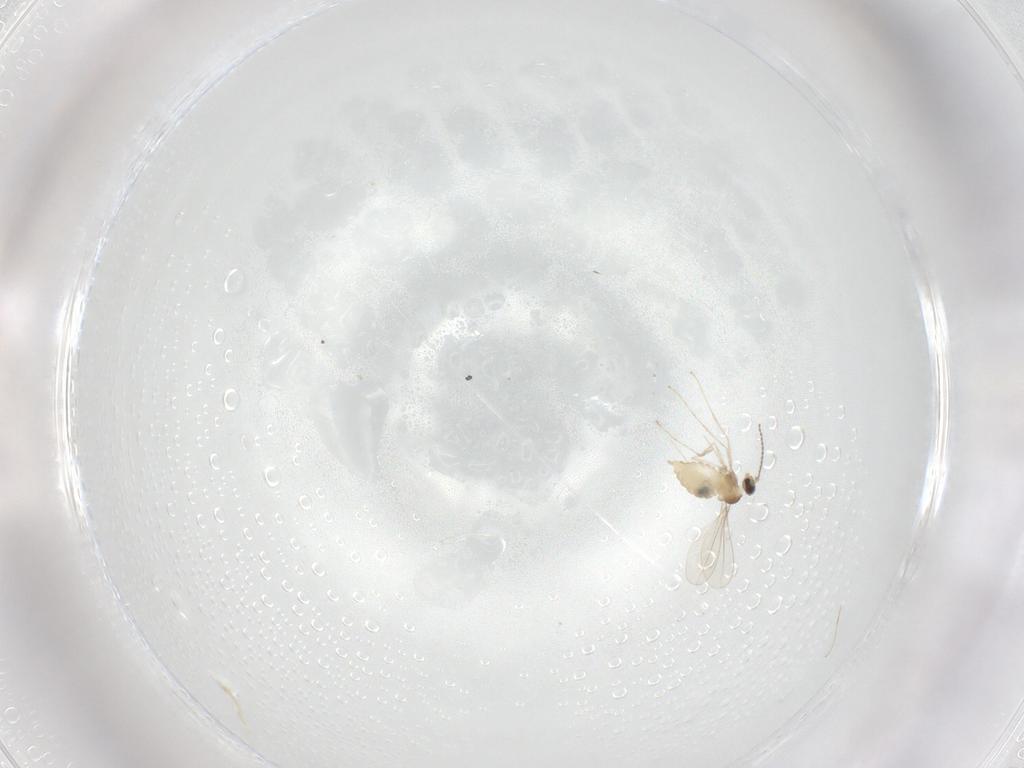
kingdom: Animalia
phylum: Arthropoda
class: Insecta
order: Diptera
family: Cecidomyiidae
